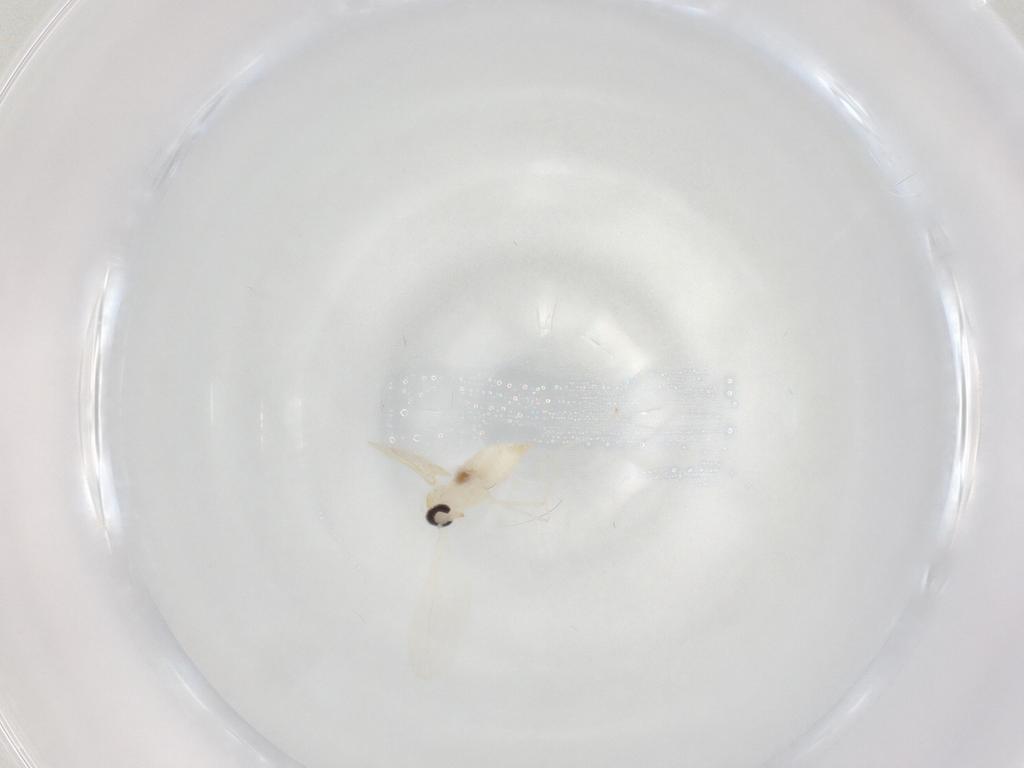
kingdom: Animalia
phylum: Arthropoda
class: Insecta
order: Diptera
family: Cecidomyiidae
